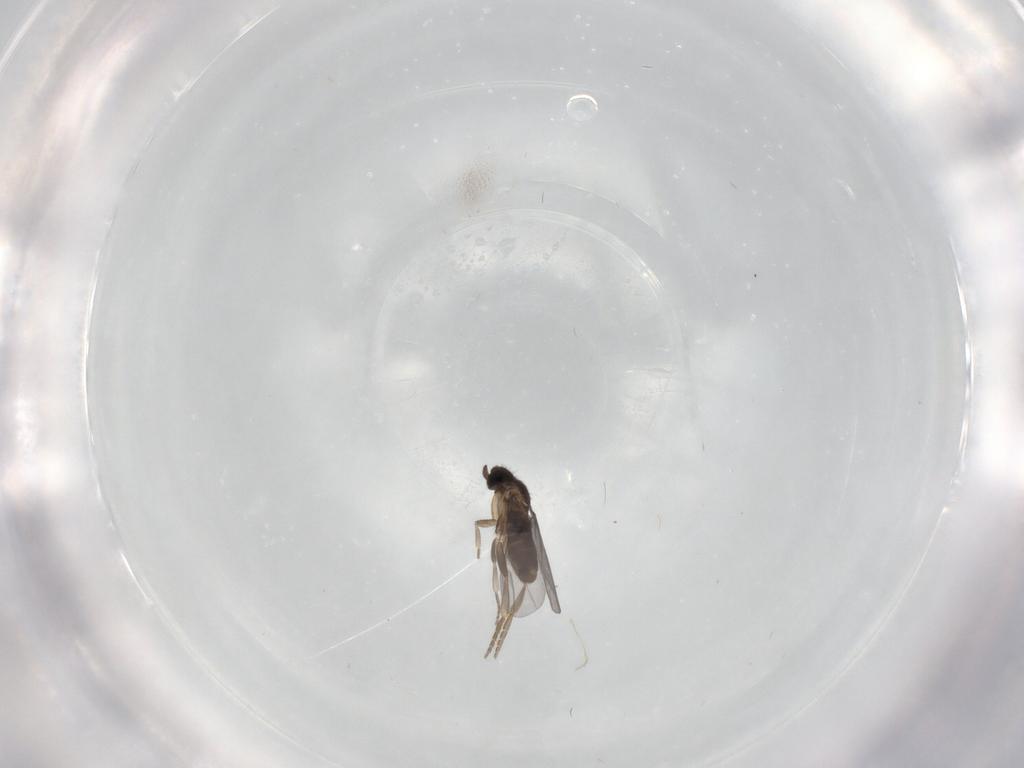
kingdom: Animalia
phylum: Arthropoda
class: Insecta
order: Diptera
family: Phoridae
